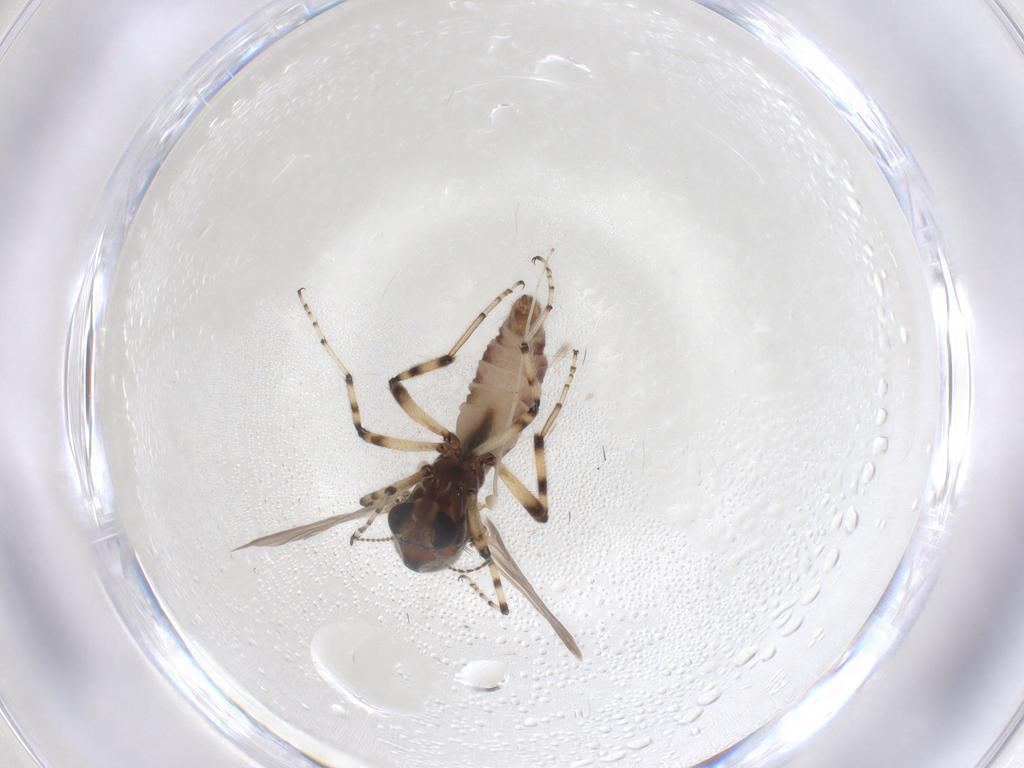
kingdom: Animalia
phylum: Arthropoda
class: Insecta
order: Diptera
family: Ceratopogonidae
